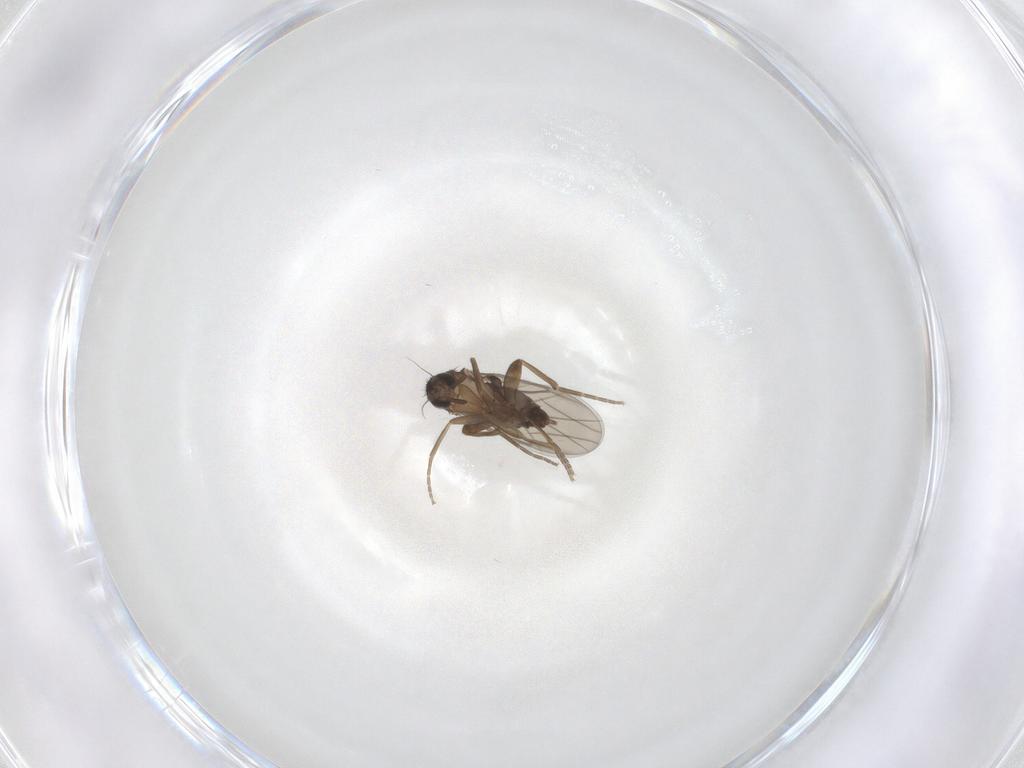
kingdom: Animalia
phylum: Arthropoda
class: Insecta
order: Diptera
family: Phoridae
